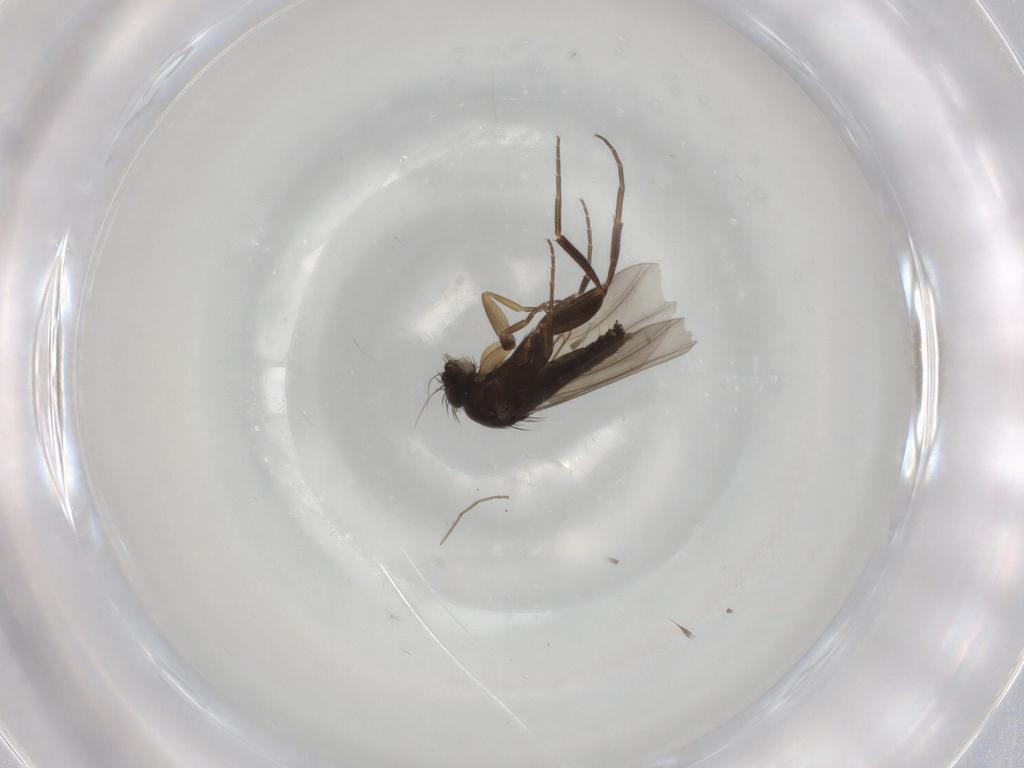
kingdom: Animalia
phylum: Arthropoda
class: Insecta
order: Diptera
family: Phoridae
